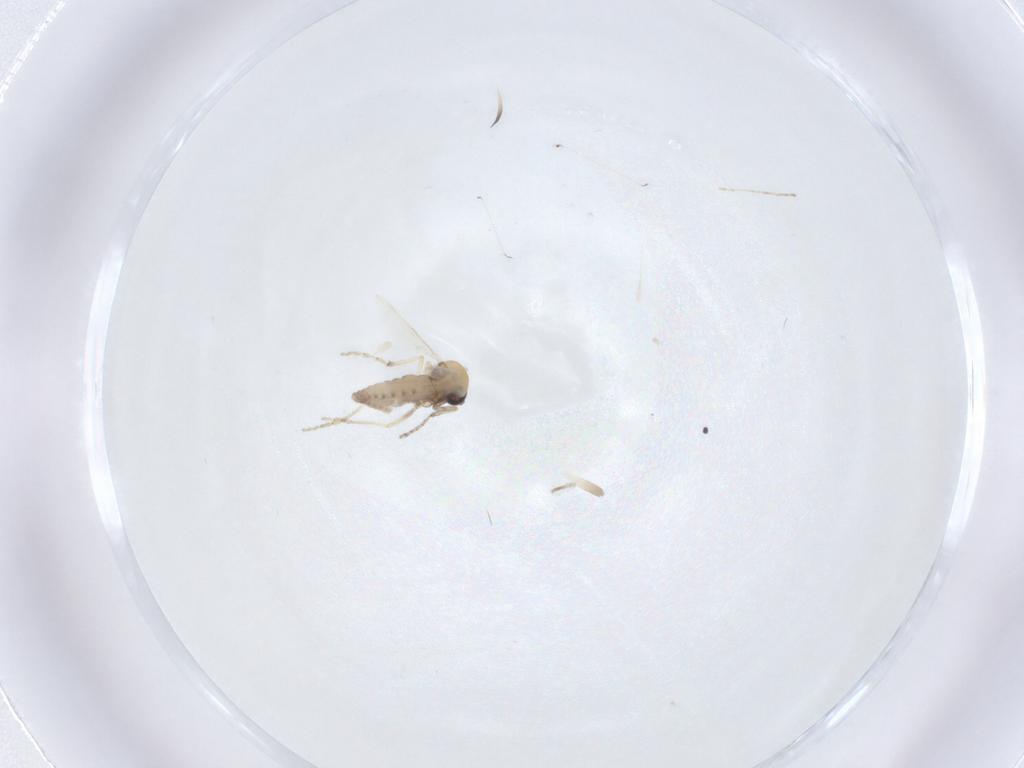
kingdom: Animalia
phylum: Arthropoda
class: Insecta
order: Diptera
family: Ceratopogonidae
